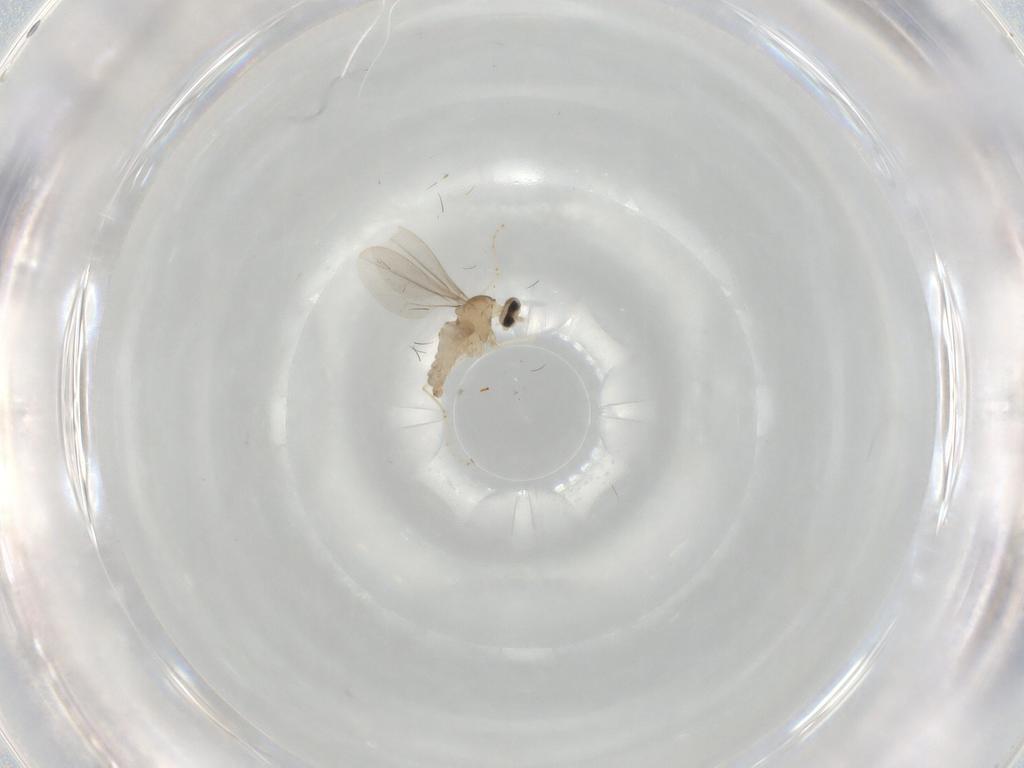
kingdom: Animalia
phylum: Arthropoda
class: Insecta
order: Diptera
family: Cecidomyiidae
